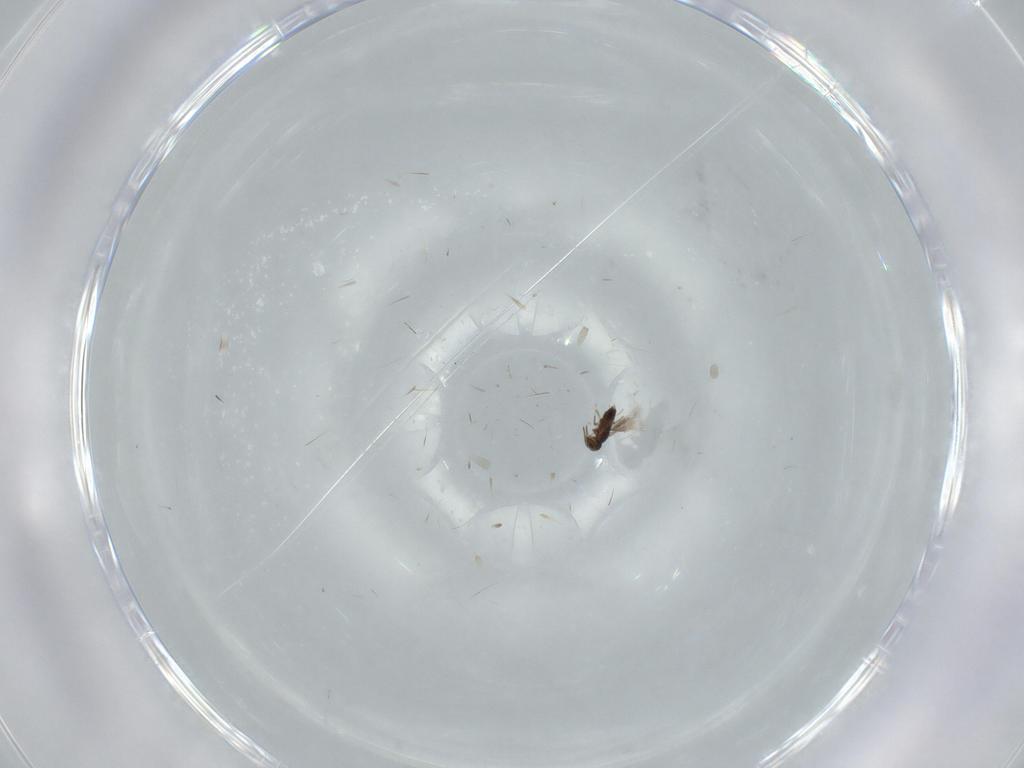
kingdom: Animalia
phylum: Arthropoda
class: Insecta
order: Hymenoptera
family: Signiphoridae
